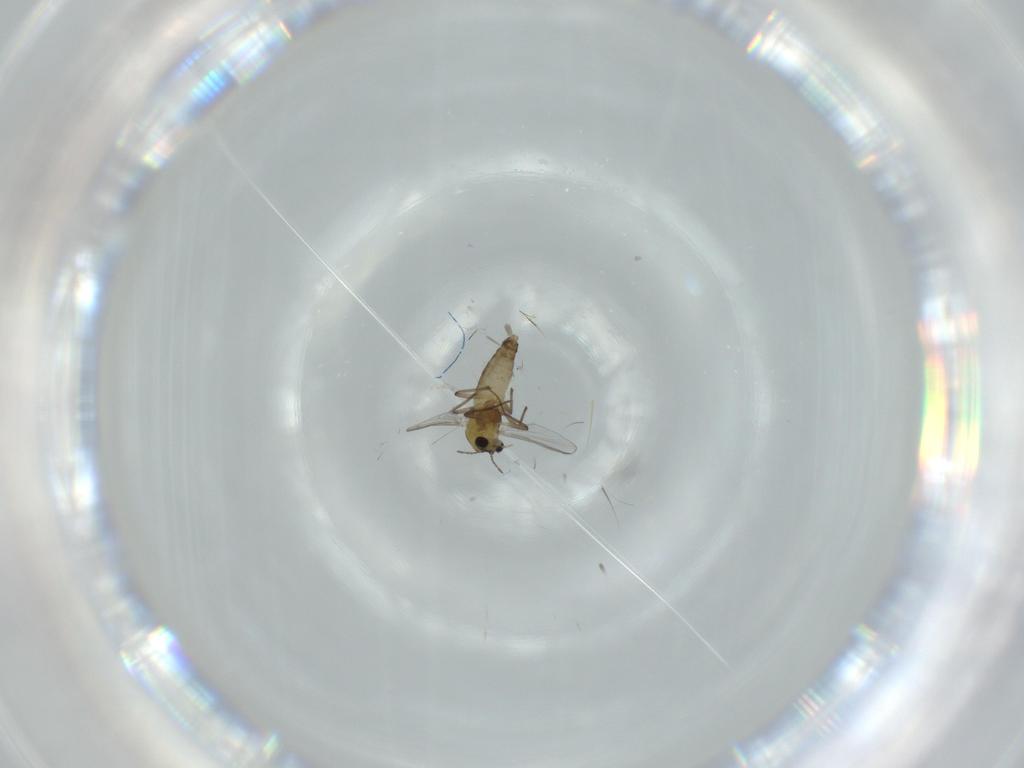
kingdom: Animalia
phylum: Arthropoda
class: Insecta
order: Diptera
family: Chironomidae
